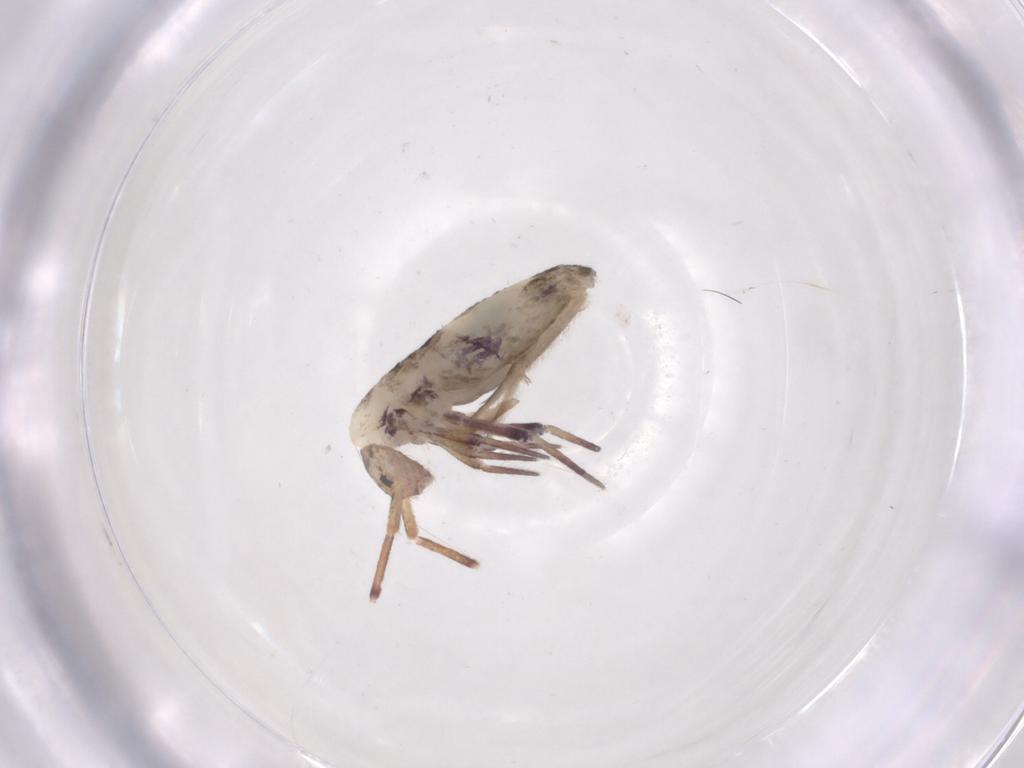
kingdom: Animalia
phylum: Arthropoda
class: Collembola
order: Entomobryomorpha
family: Entomobryidae
